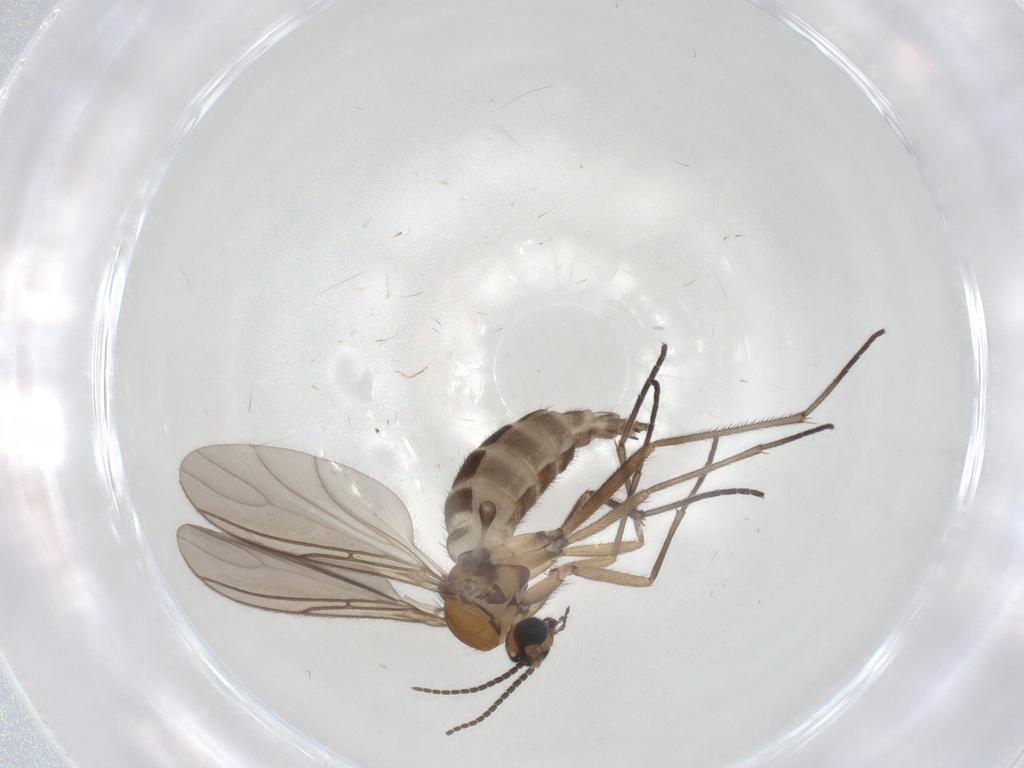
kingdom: Animalia
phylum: Arthropoda
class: Insecta
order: Diptera
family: Sciaridae
